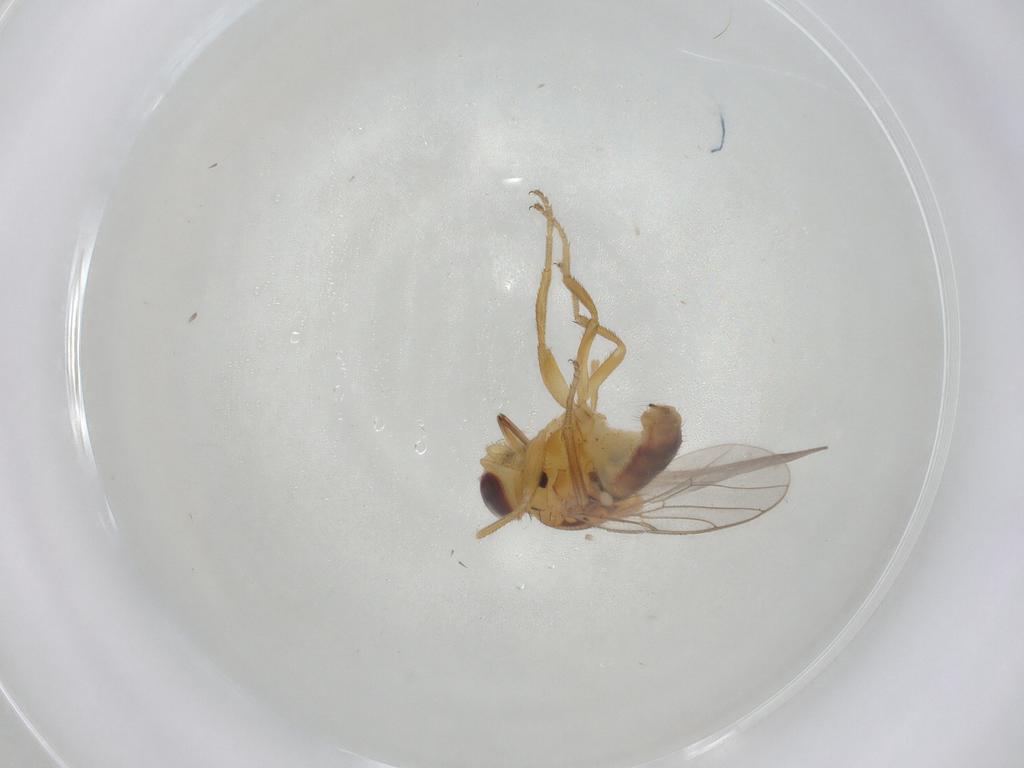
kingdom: Animalia
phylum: Arthropoda
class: Insecta
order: Diptera
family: Chloropidae
